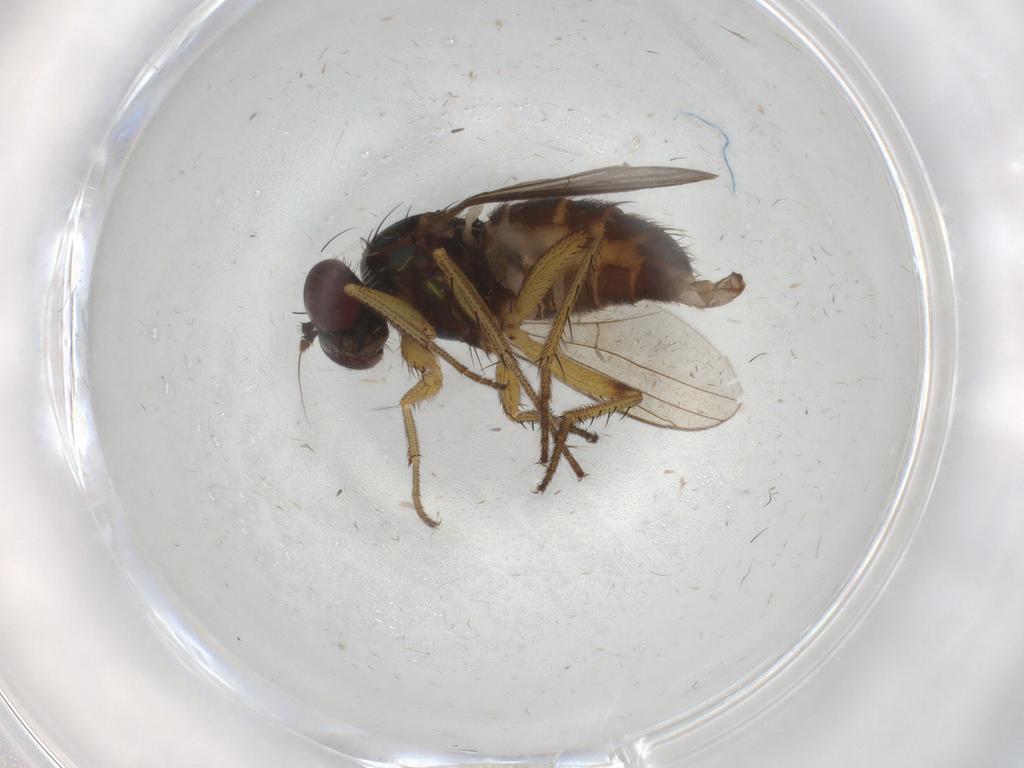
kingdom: Animalia
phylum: Arthropoda
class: Insecta
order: Diptera
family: Dolichopodidae
